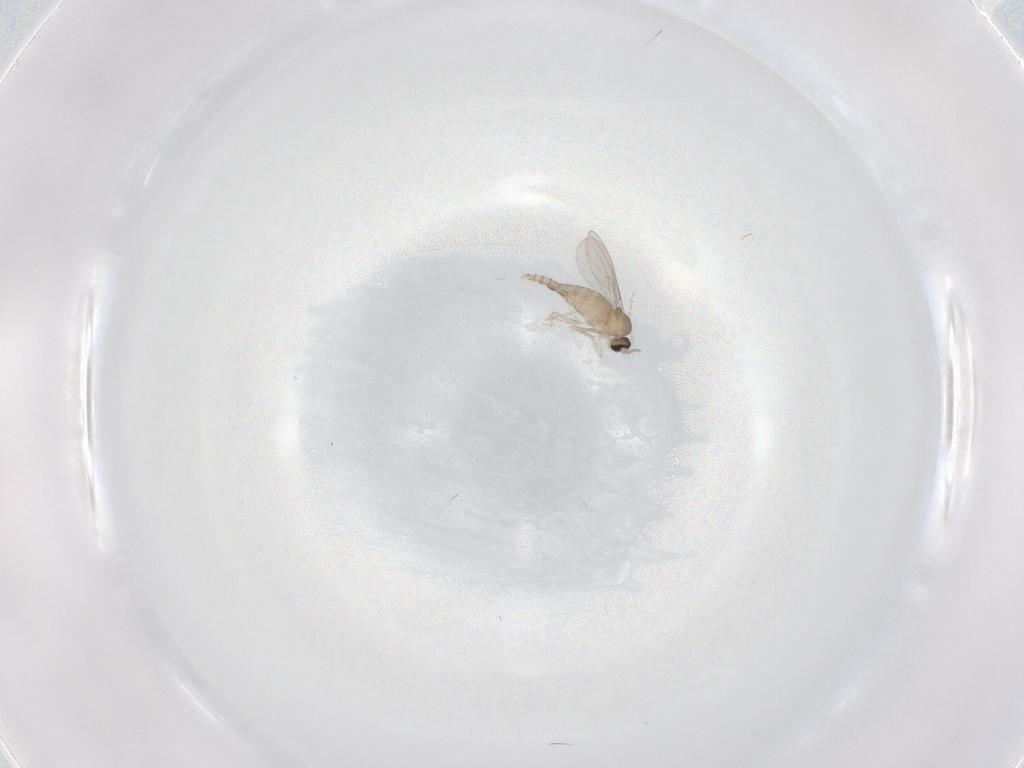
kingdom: Animalia
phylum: Arthropoda
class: Insecta
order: Diptera
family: Cecidomyiidae
